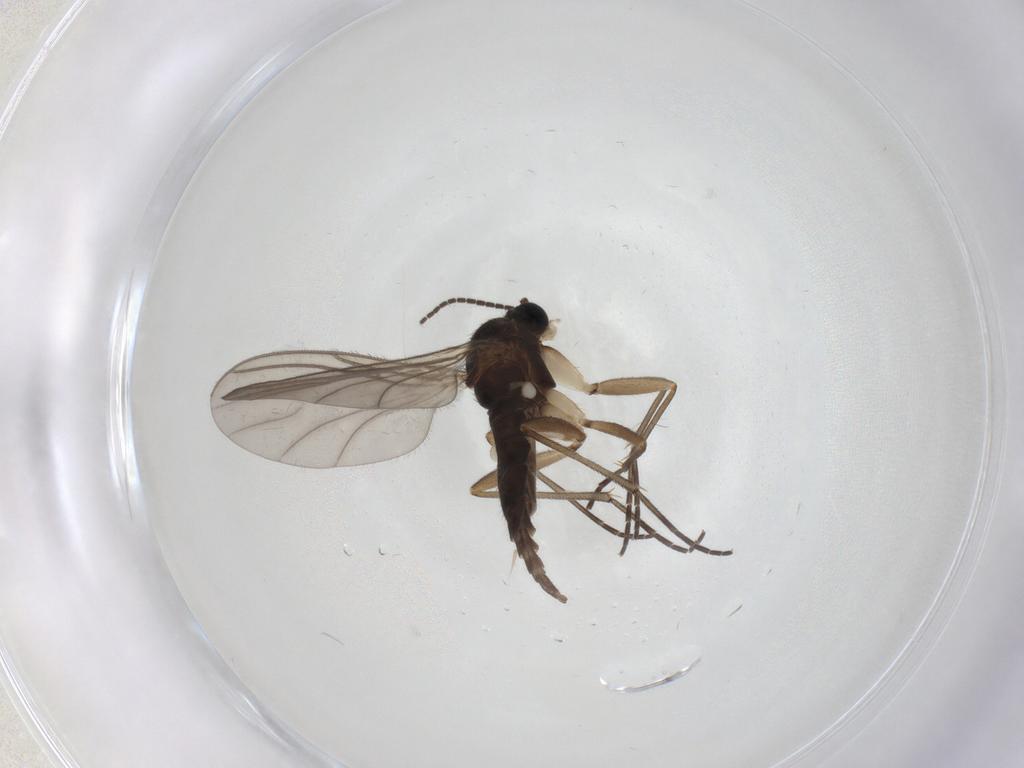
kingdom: Animalia
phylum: Arthropoda
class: Insecta
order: Diptera
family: Sciaridae
